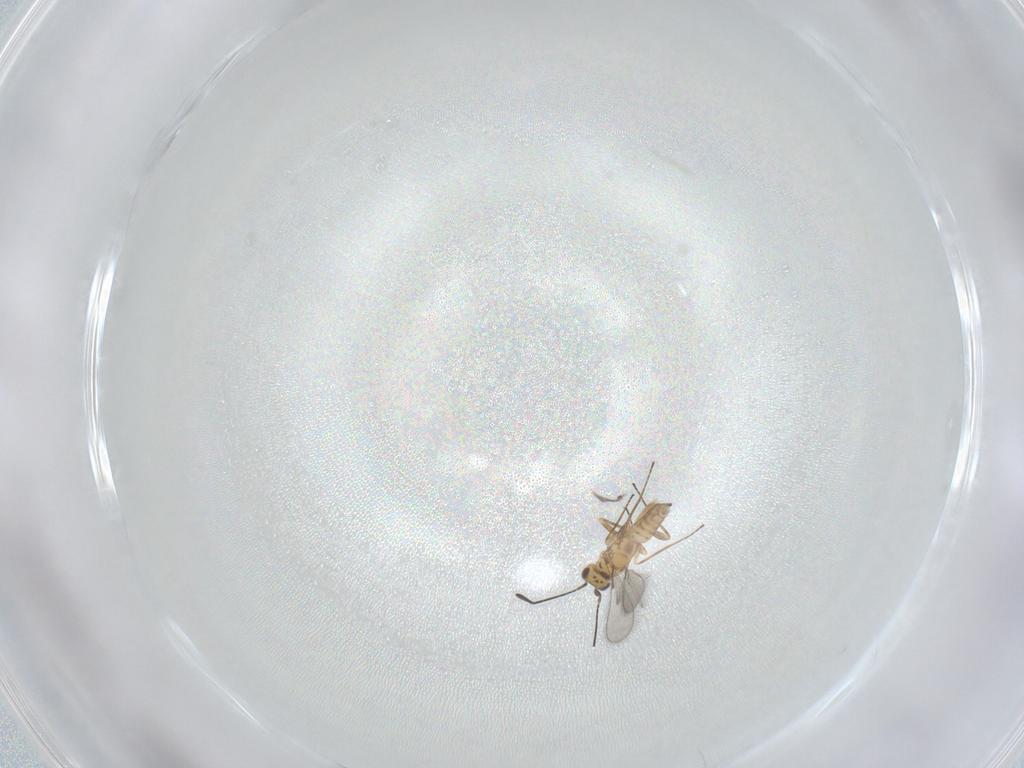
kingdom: Animalia
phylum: Arthropoda
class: Insecta
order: Hymenoptera
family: Mymaridae
